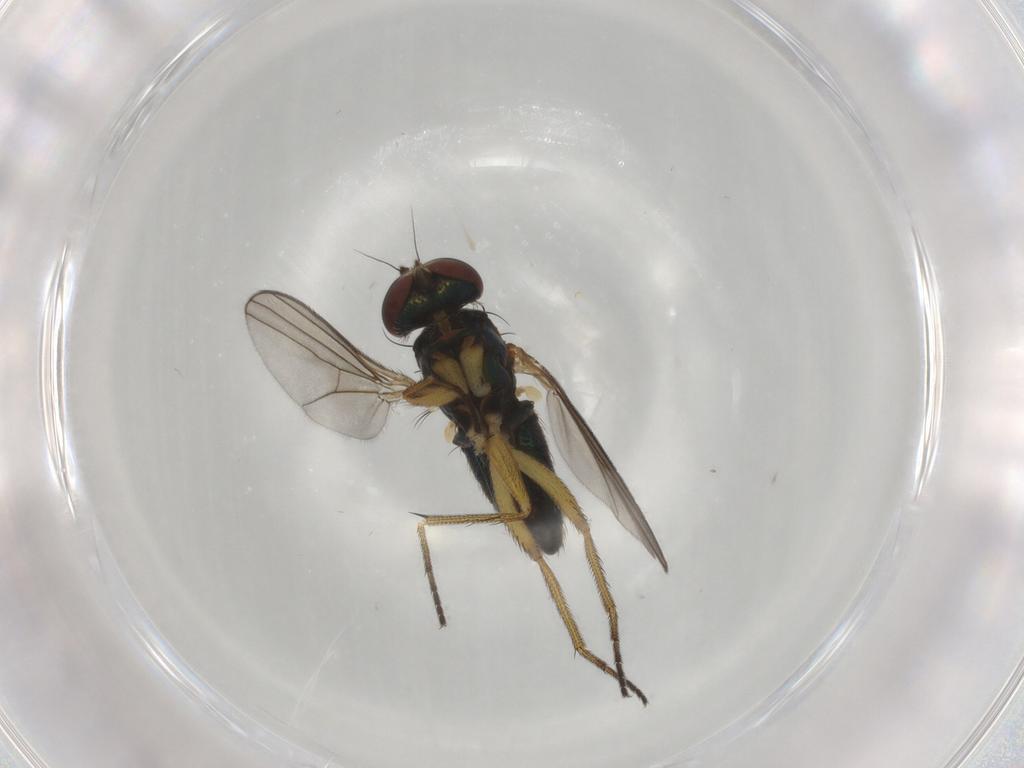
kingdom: Animalia
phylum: Arthropoda
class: Insecta
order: Diptera
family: Dolichopodidae
